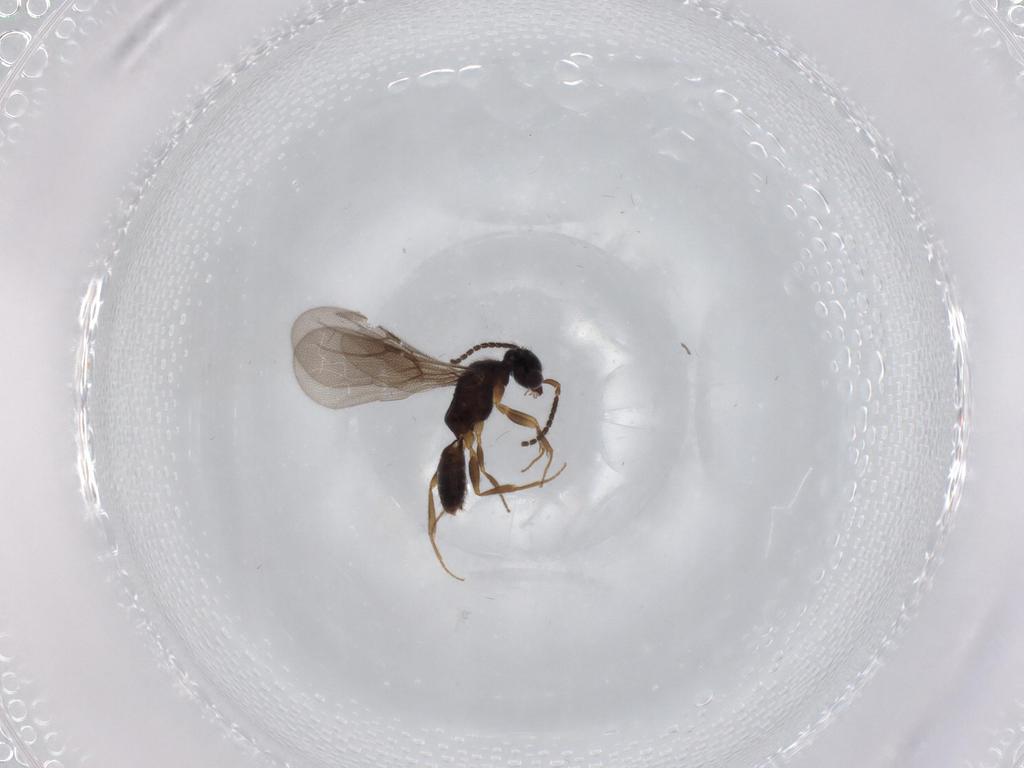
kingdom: Animalia
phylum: Arthropoda
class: Insecta
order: Hymenoptera
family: Bethylidae
